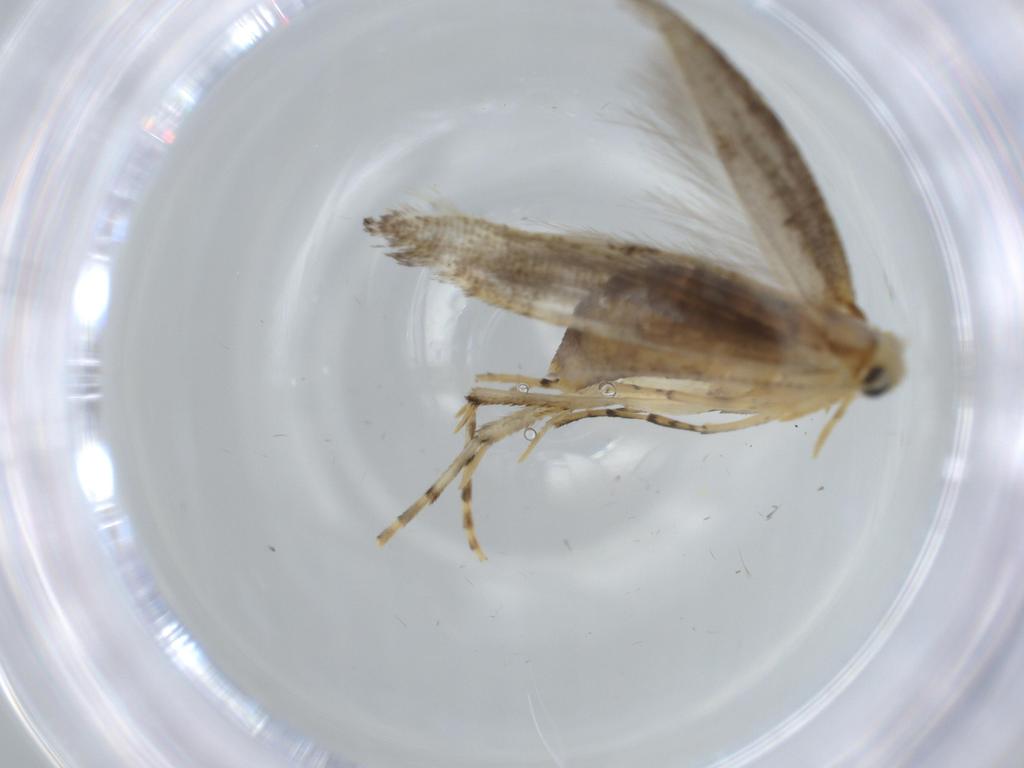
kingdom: Animalia
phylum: Arthropoda
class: Insecta
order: Lepidoptera
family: Argyresthiidae
